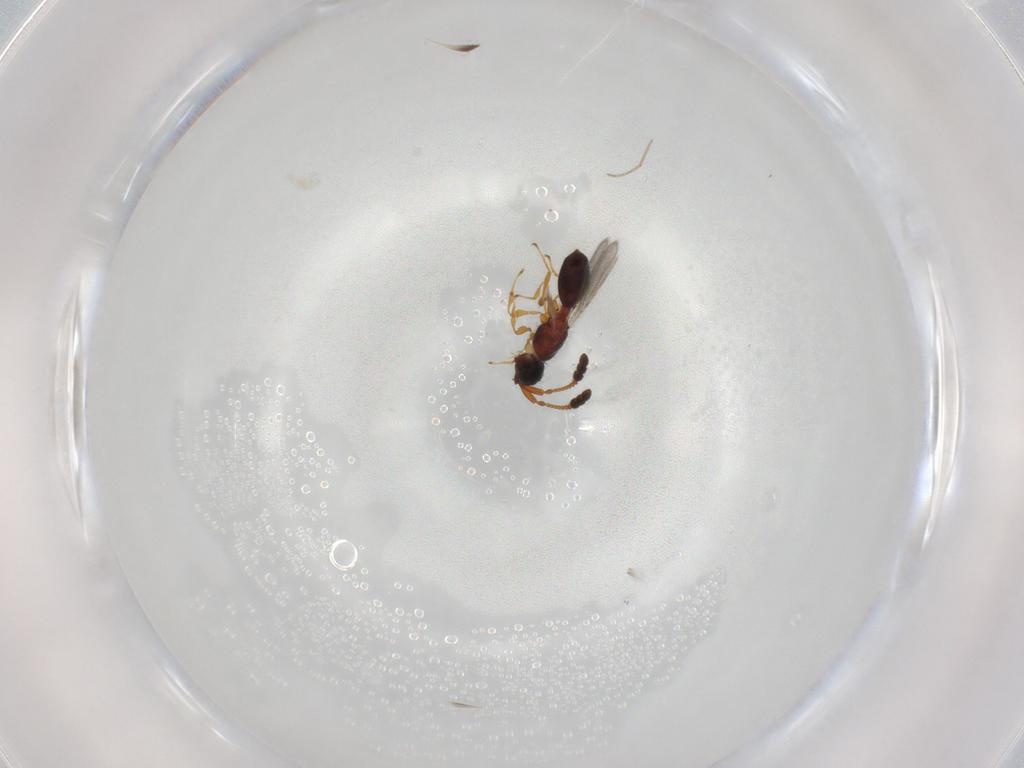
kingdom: Animalia
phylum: Arthropoda
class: Insecta
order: Hymenoptera
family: Diapriidae
